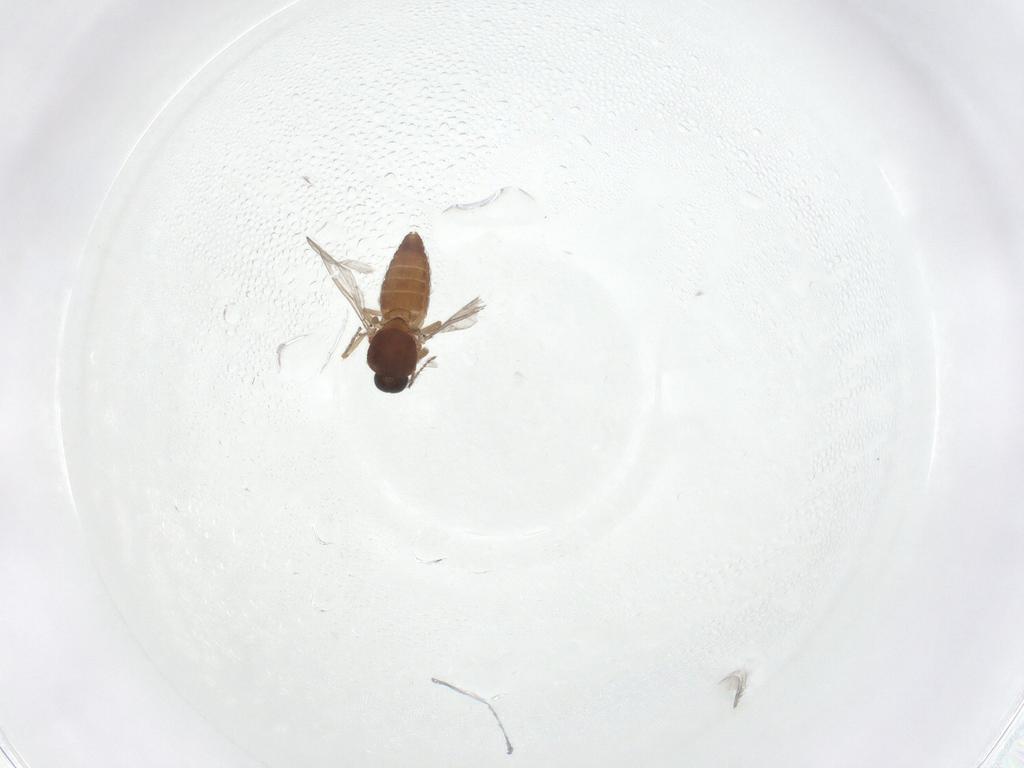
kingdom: Animalia
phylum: Arthropoda
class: Insecta
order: Diptera
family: Ceratopogonidae
